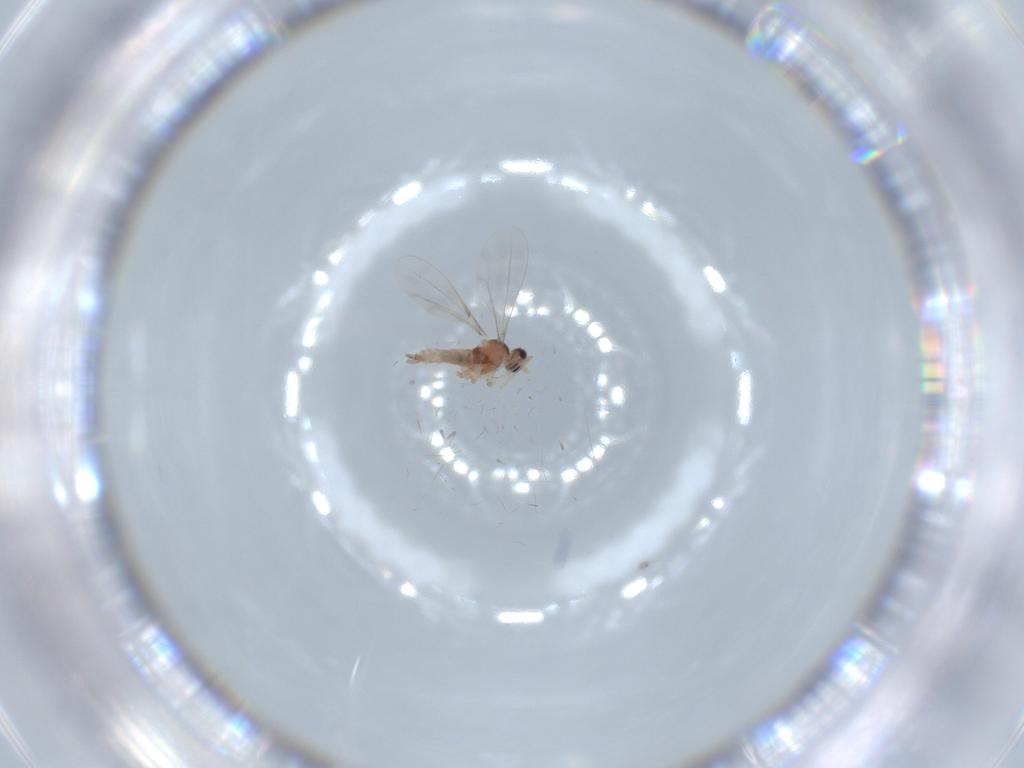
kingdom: Animalia
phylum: Arthropoda
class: Insecta
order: Diptera
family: Cecidomyiidae
